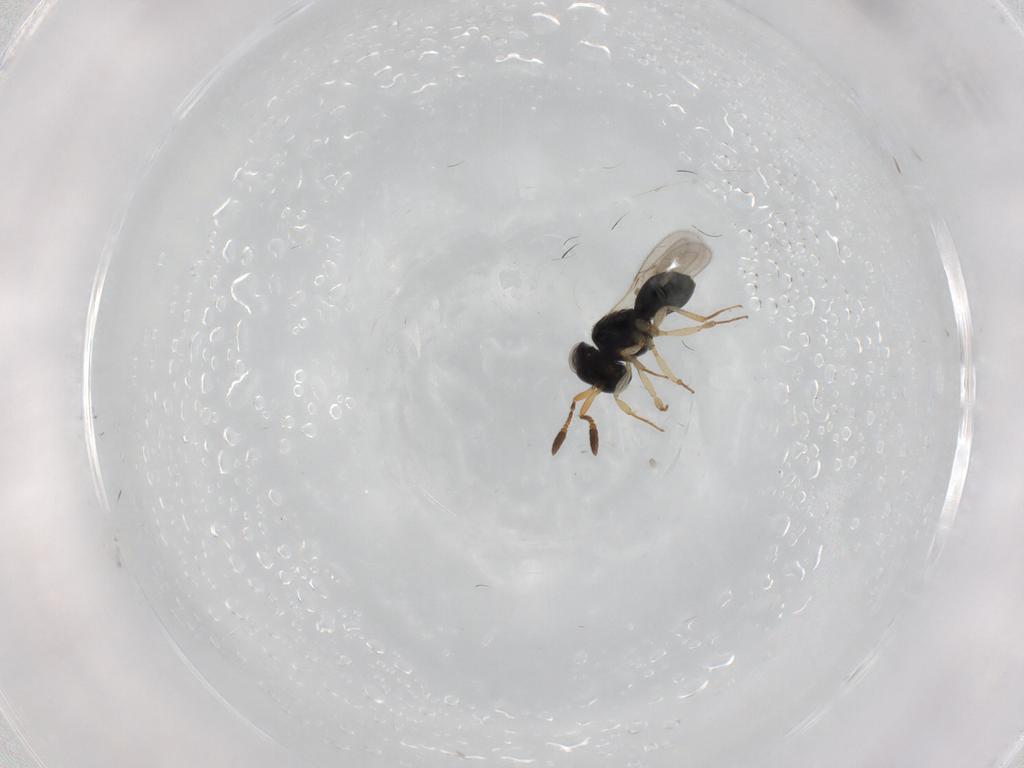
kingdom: Animalia
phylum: Arthropoda
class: Insecta
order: Hymenoptera
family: Scelionidae
